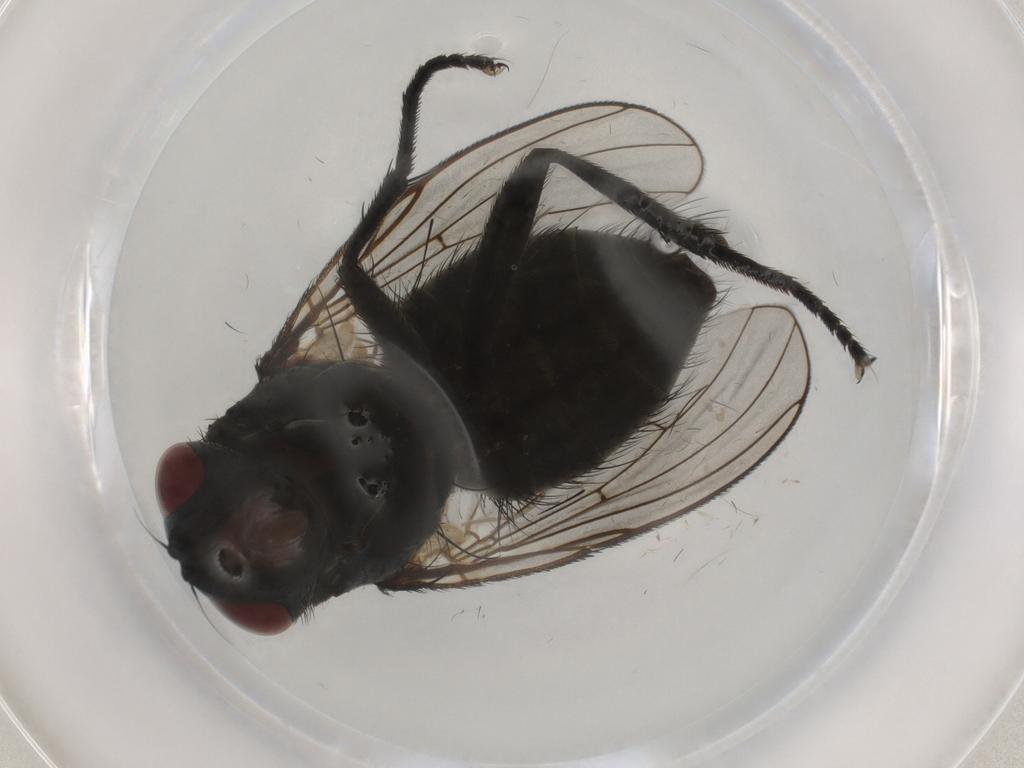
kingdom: Animalia
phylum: Arthropoda
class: Insecta
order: Diptera
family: Muscidae
